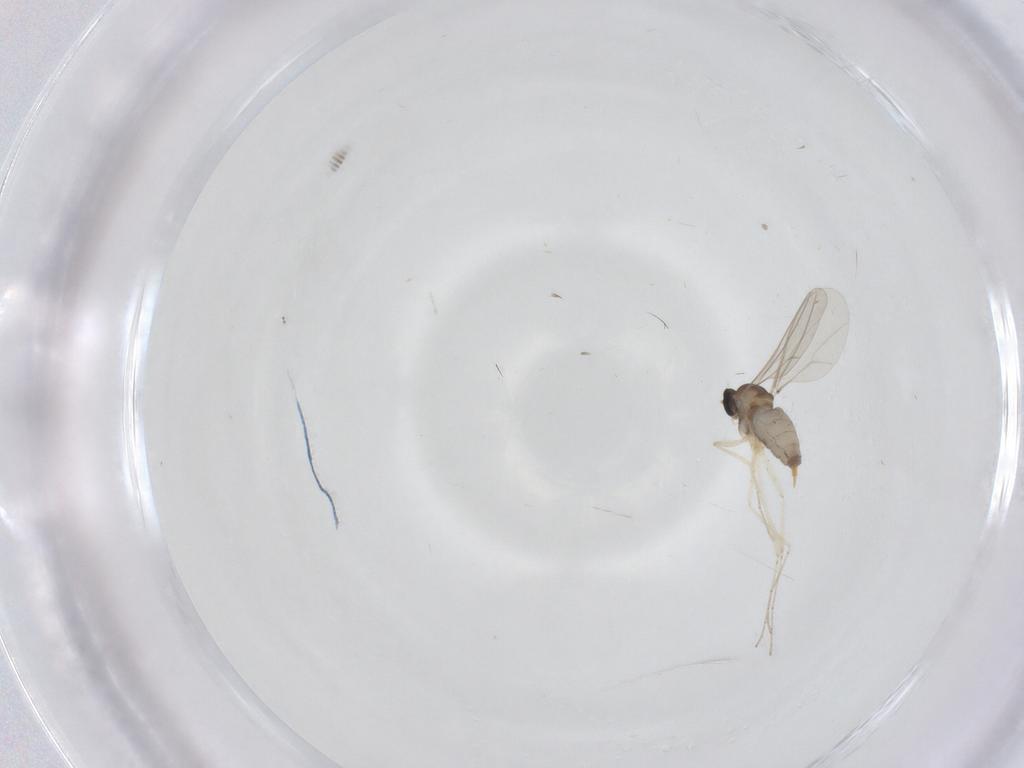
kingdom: Animalia
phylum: Arthropoda
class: Insecta
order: Diptera
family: Cecidomyiidae
